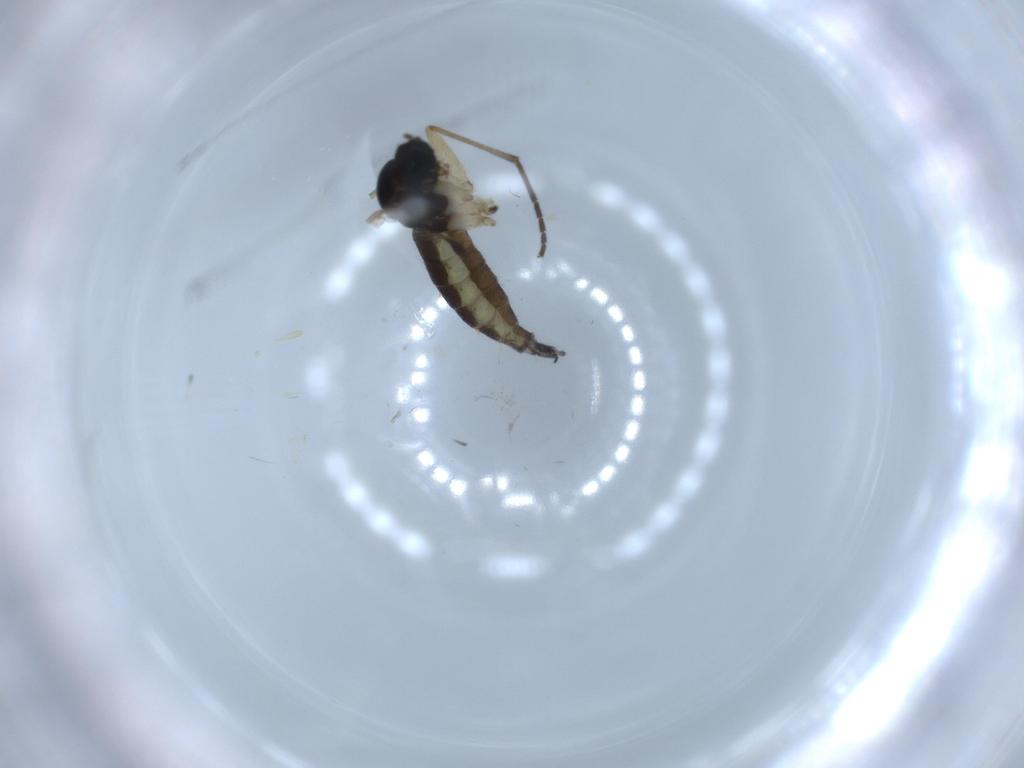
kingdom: Animalia
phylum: Arthropoda
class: Insecta
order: Diptera
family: Sciaridae
